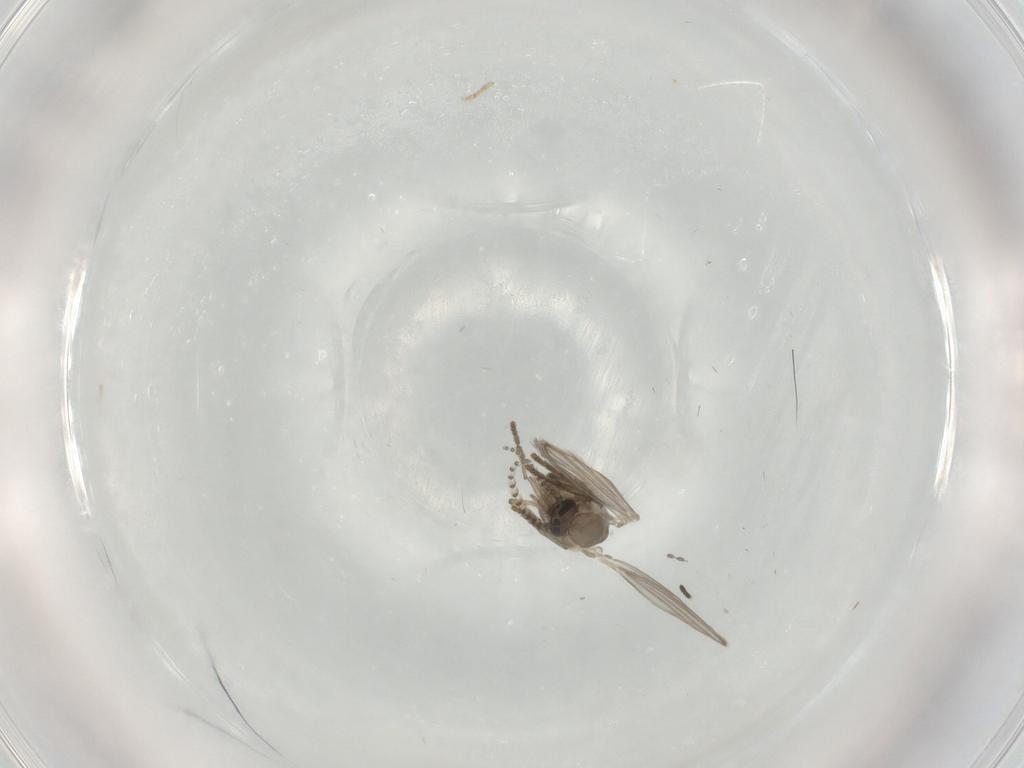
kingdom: Animalia
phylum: Arthropoda
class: Insecta
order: Diptera
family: Psychodidae
